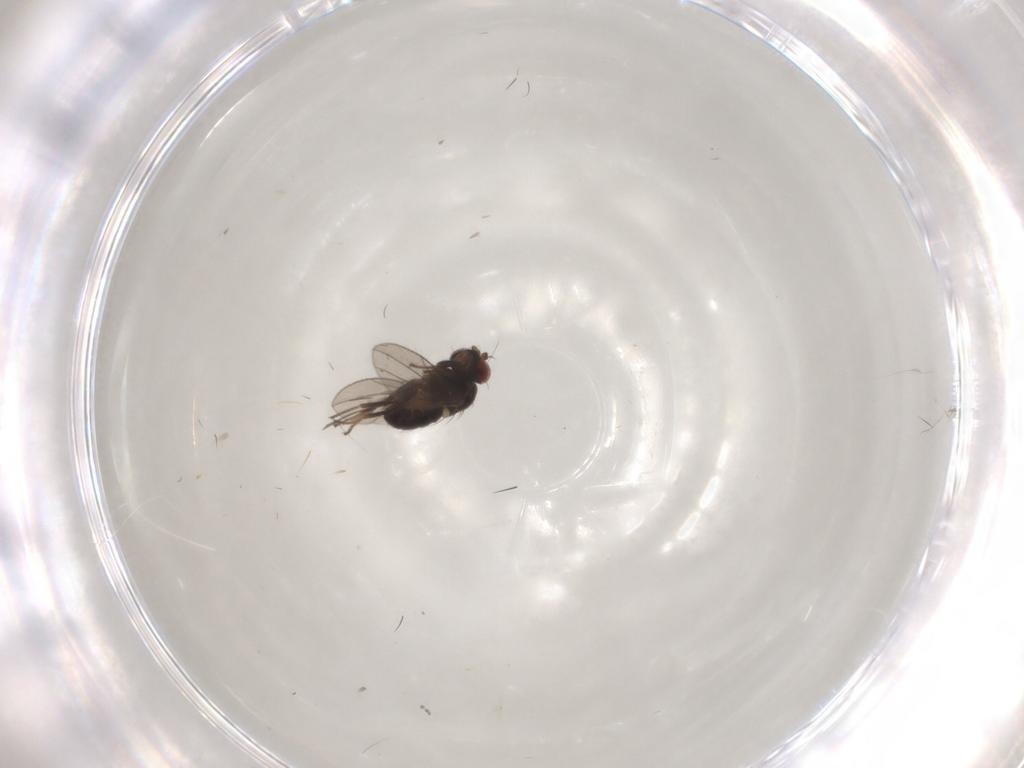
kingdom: Animalia
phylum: Arthropoda
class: Insecta
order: Diptera
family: Ephydridae
